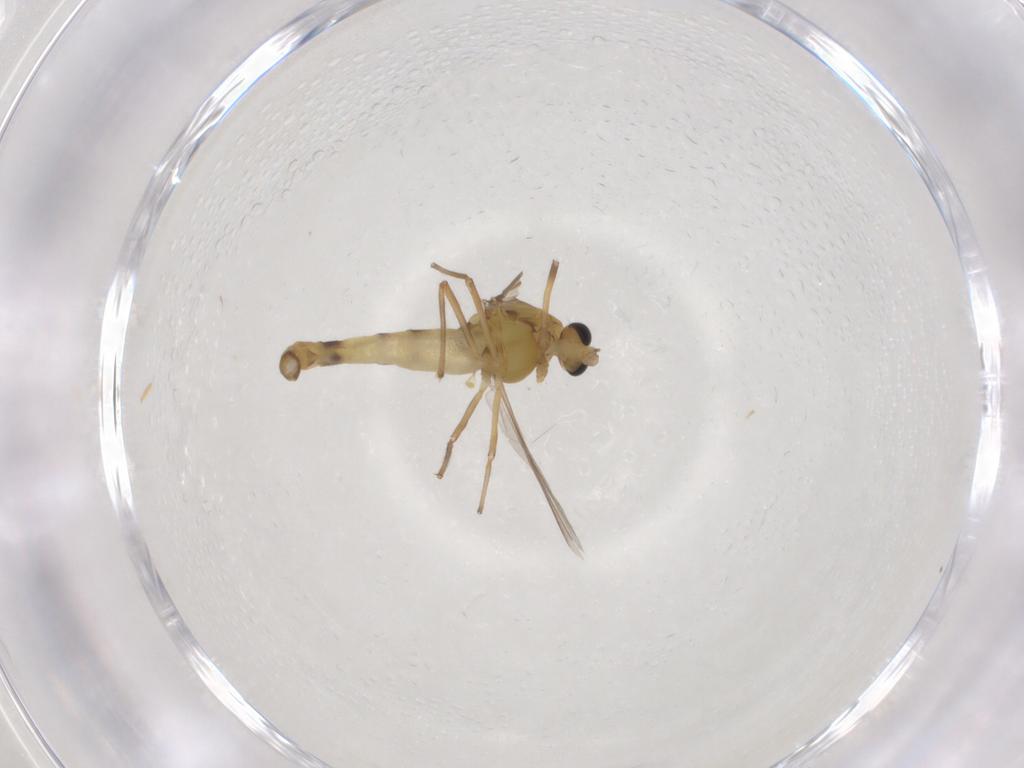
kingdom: Animalia
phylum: Arthropoda
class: Insecta
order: Diptera
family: Chironomidae
